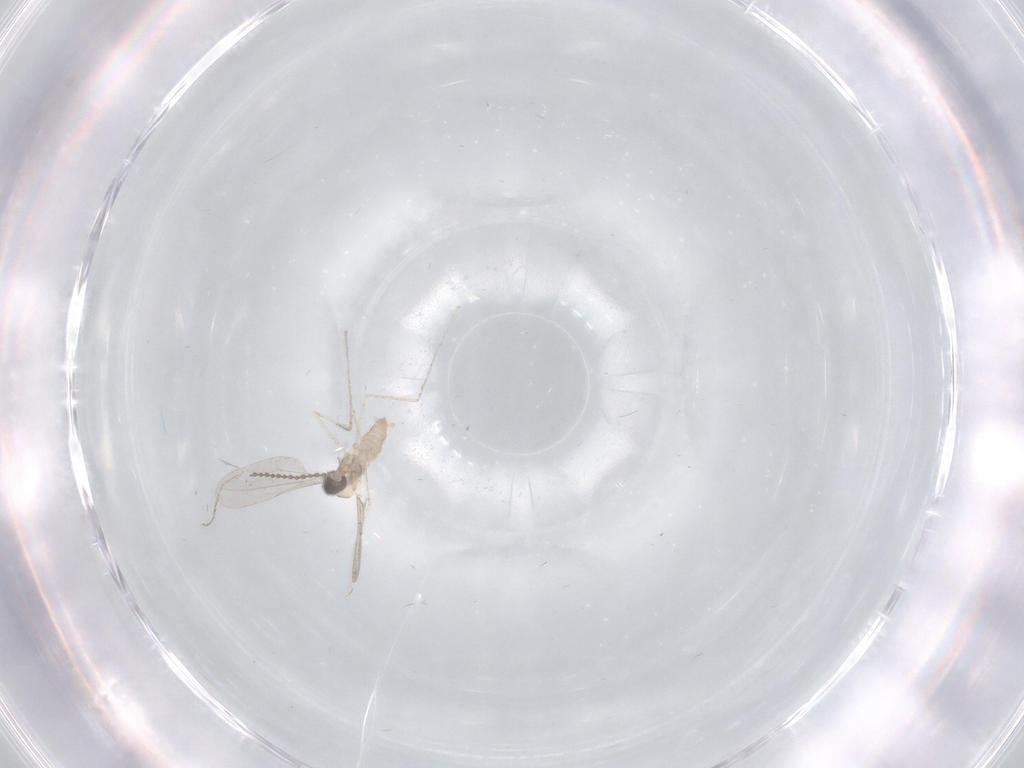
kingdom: Animalia
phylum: Arthropoda
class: Insecta
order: Diptera
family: Cecidomyiidae
